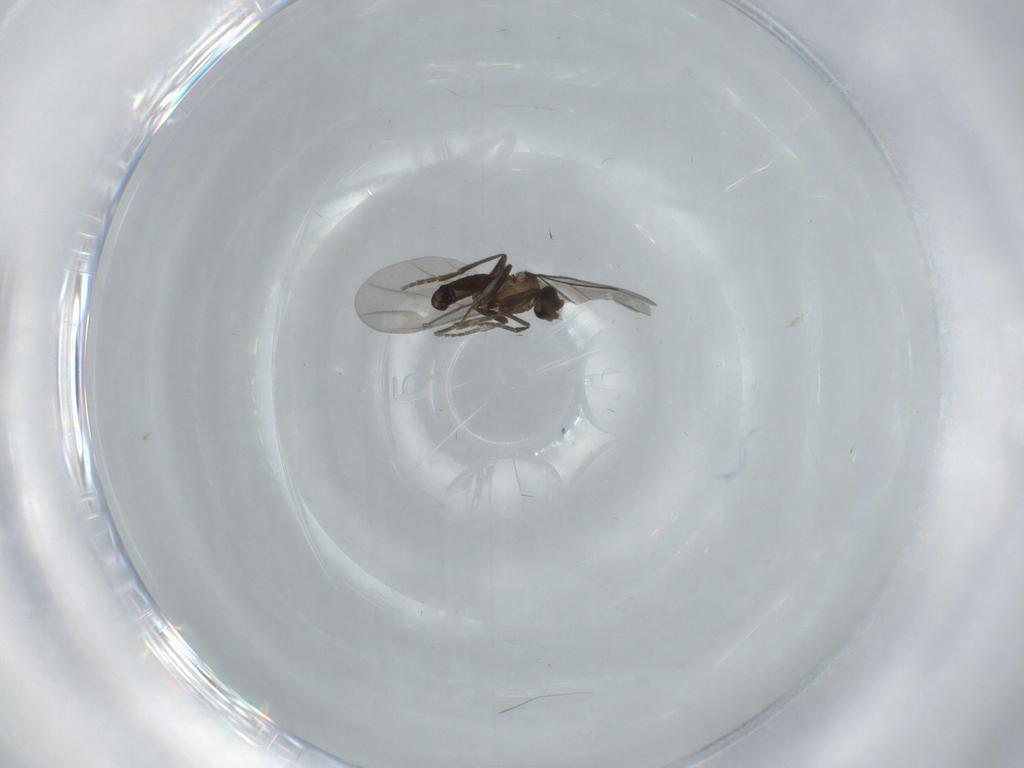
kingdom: Animalia
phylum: Arthropoda
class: Insecta
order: Diptera
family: Phoridae
